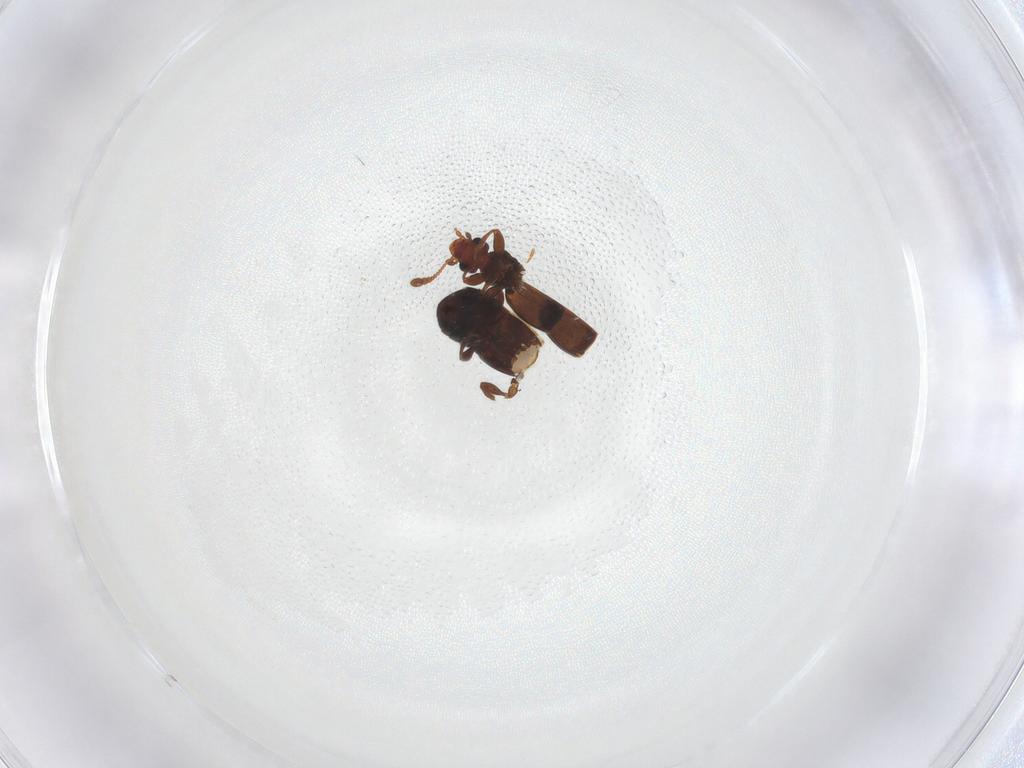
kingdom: Animalia
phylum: Arthropoda
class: Insecta
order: Coleoptera
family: Staphylinidae
